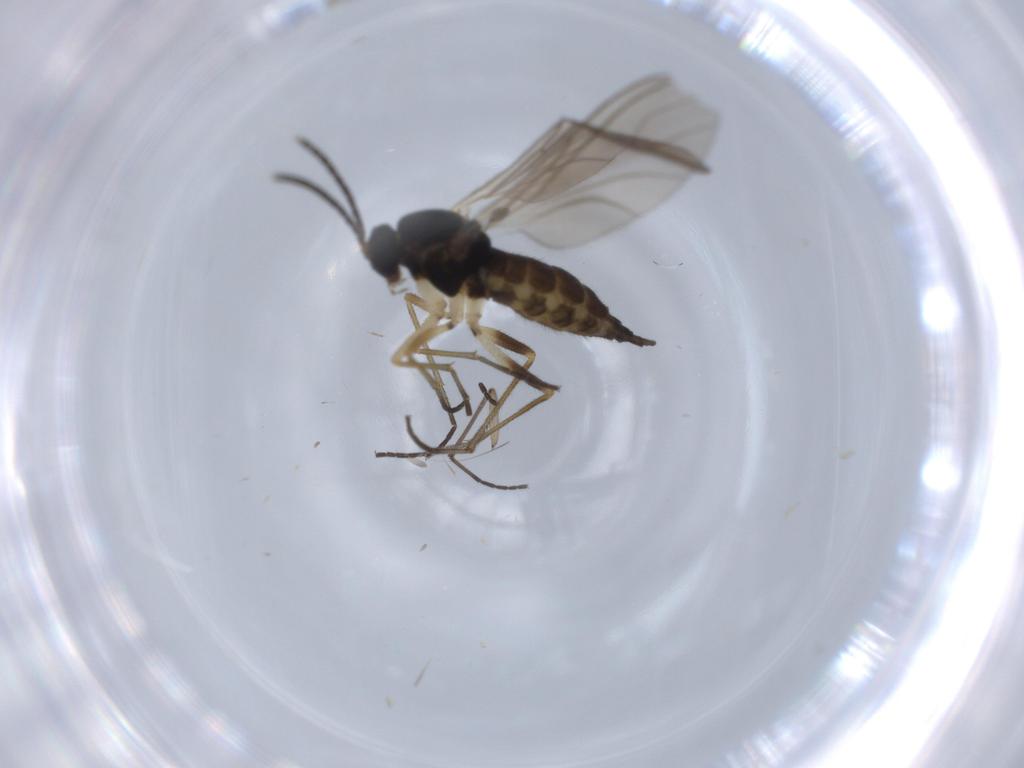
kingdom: Animalia
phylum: Arthropoda
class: Insecta
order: Diptera
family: Sciaridae
